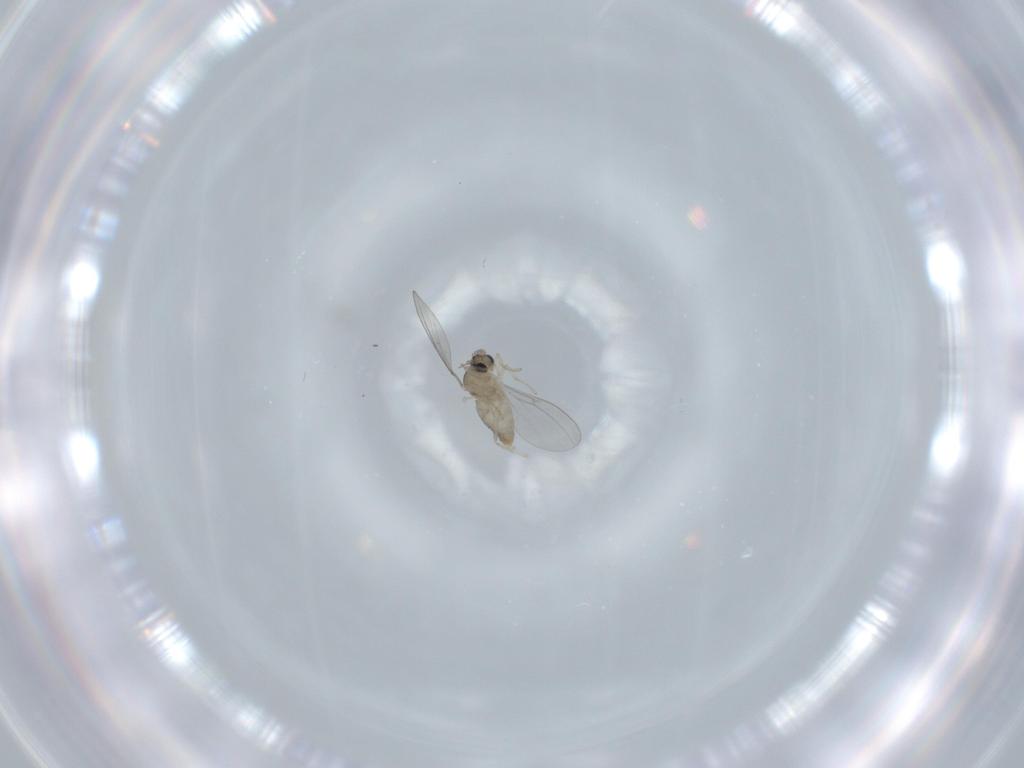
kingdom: Animalia
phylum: Arthropoda
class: Insecta
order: Diptera
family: Cecidomyiidae
